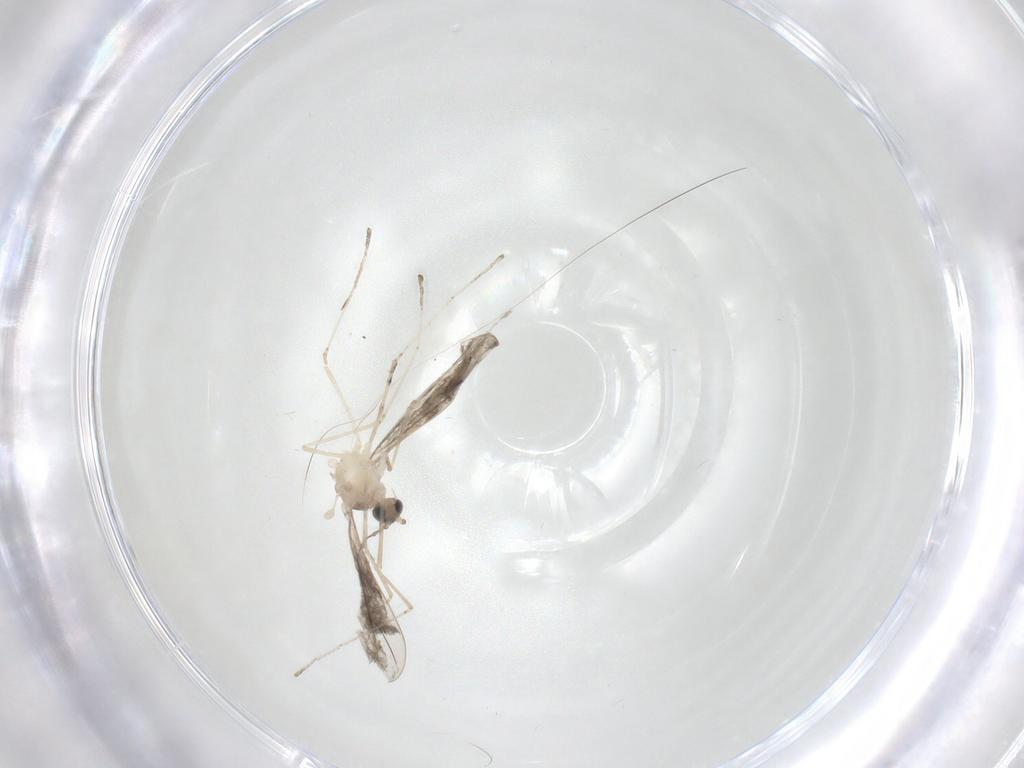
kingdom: Animalia
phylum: Arthropoda
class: Insecta
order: Diptera
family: Cecidomyiidae
